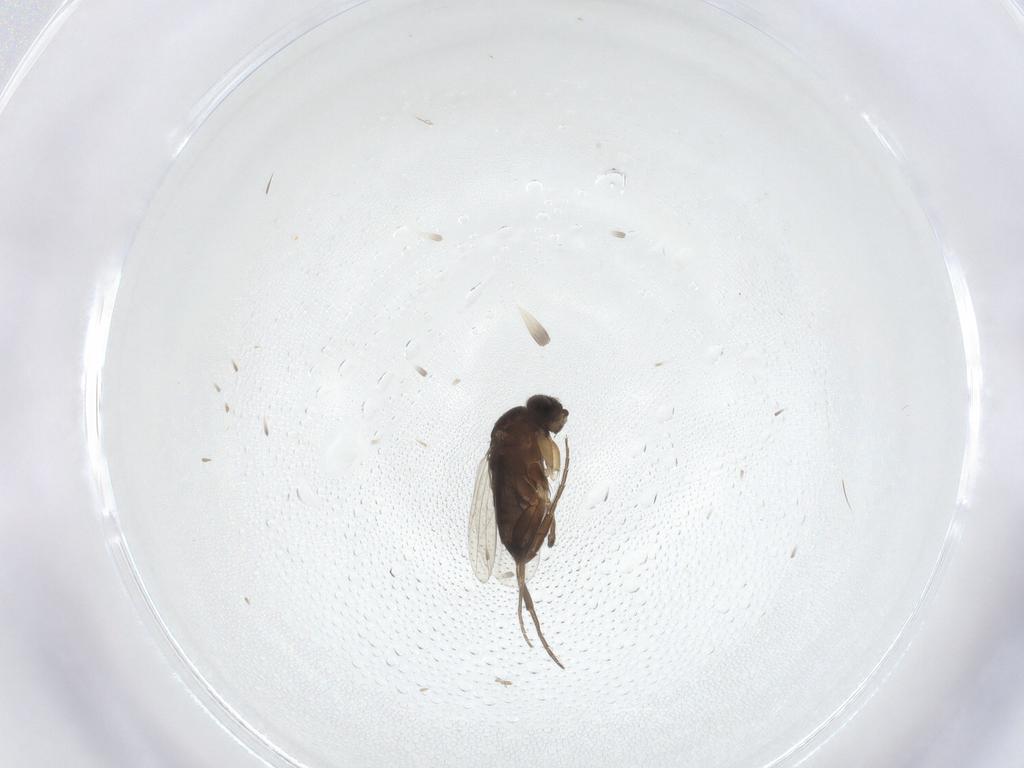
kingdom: Animalia
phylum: Arthropoda
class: Insecta
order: Diptera
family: Phoridae
